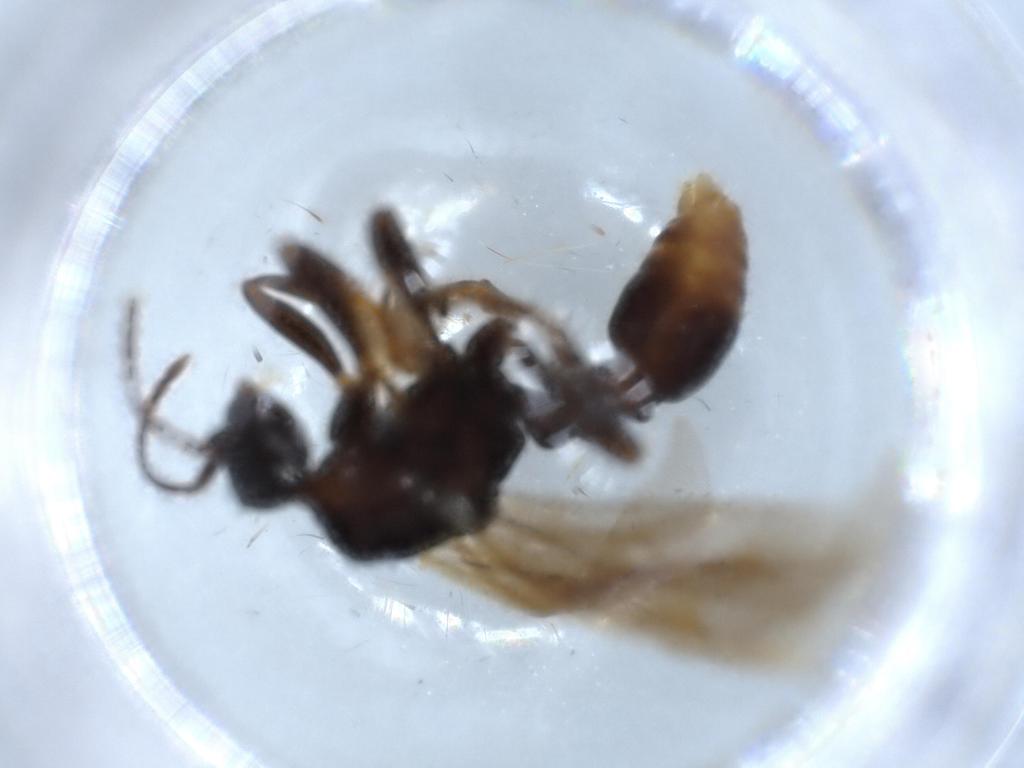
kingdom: Animalia
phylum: Arthropoda
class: Insecta
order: Hymenoptera
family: Formicidae
